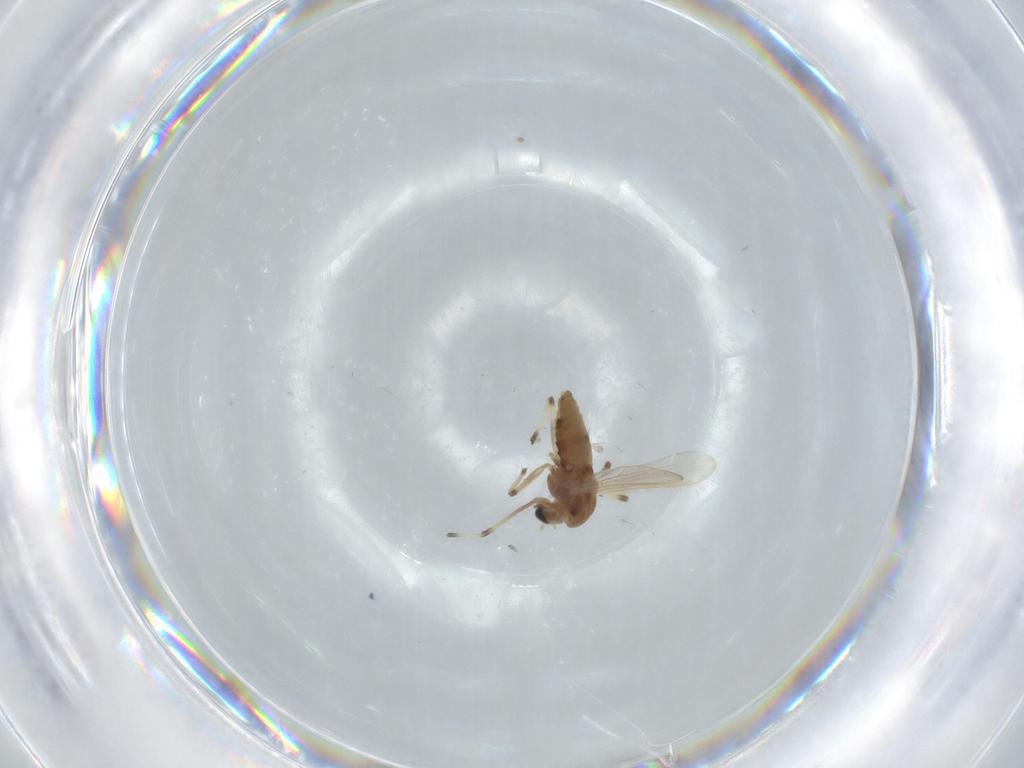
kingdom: Animalia
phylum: Arthropoda
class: Insecta
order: Diptera
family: Chironomidae
